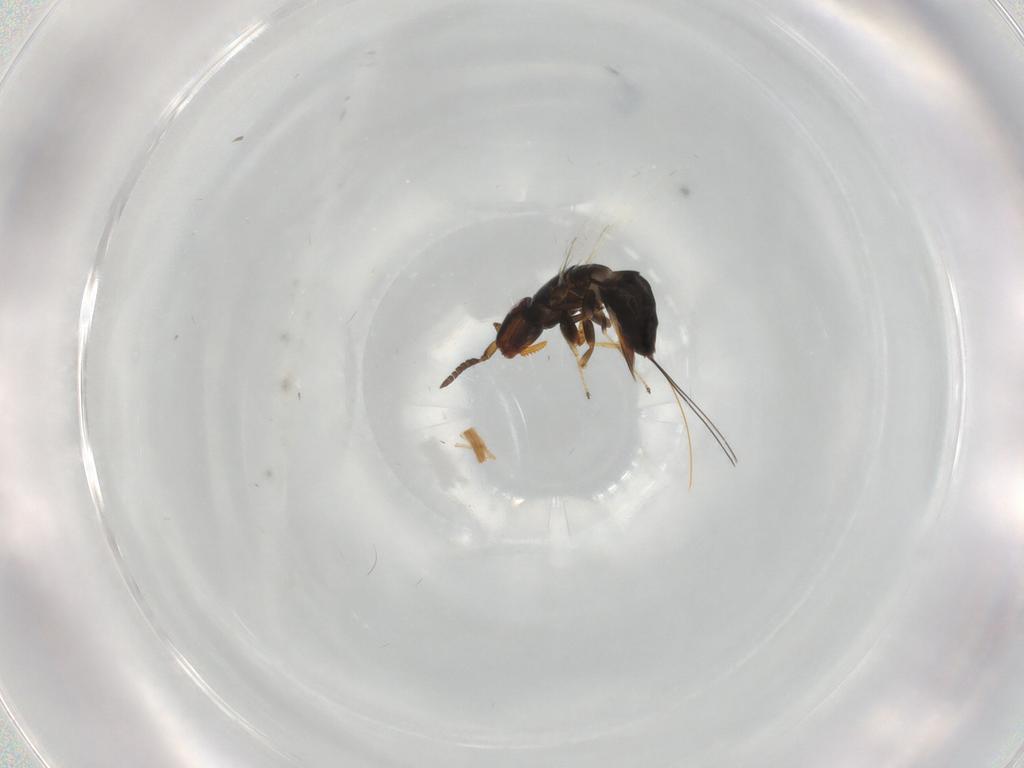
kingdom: Animalia
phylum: Arthropoda
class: Insecta
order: Hymenoptera
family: Agaonidae
